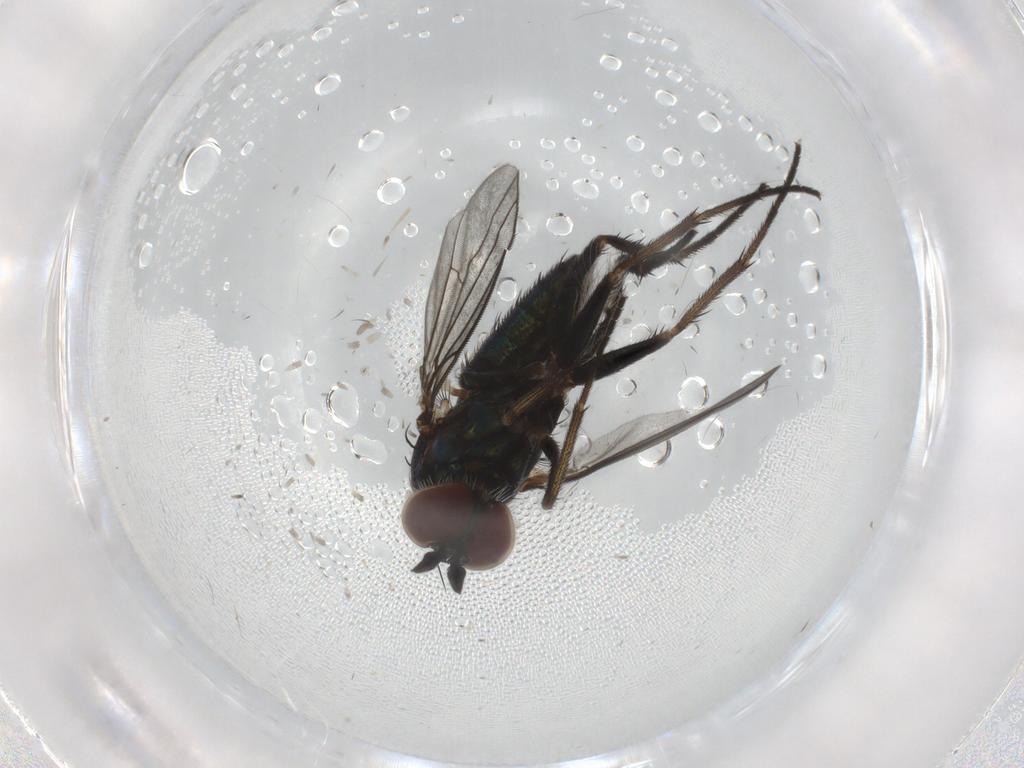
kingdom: Animalia
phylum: Arthropoda
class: Insecta
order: Diptera
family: Dolichopodidae
